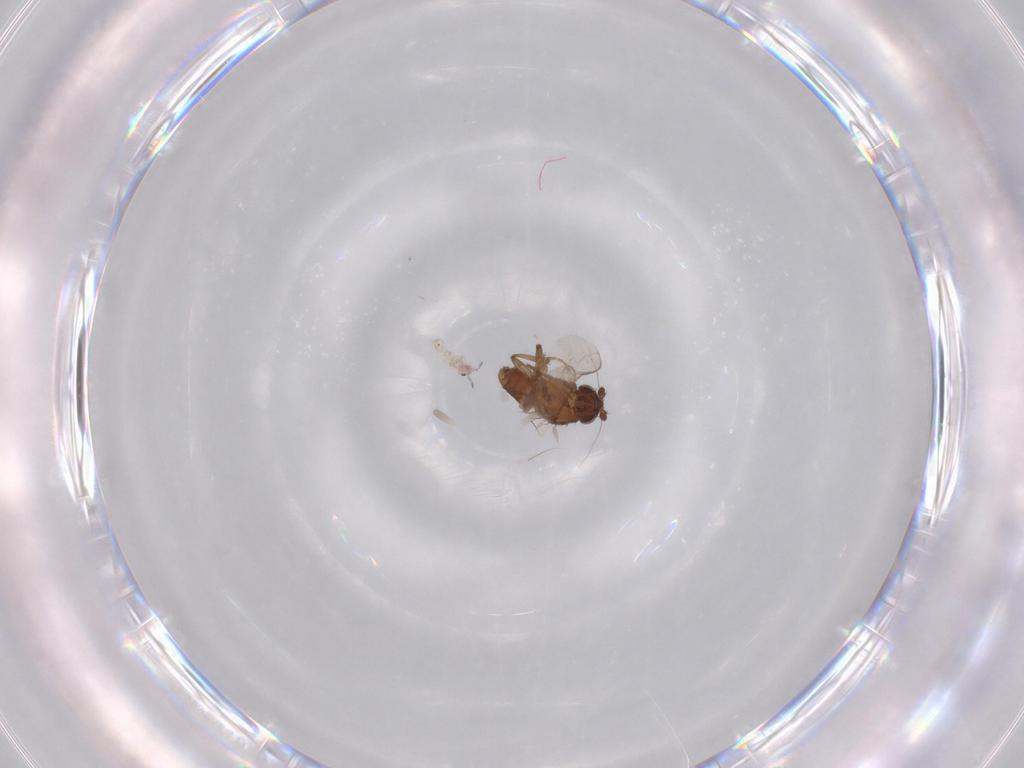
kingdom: Animalia
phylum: Arthropoda
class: Insecta
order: Diptera
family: Sphaeroceridae
